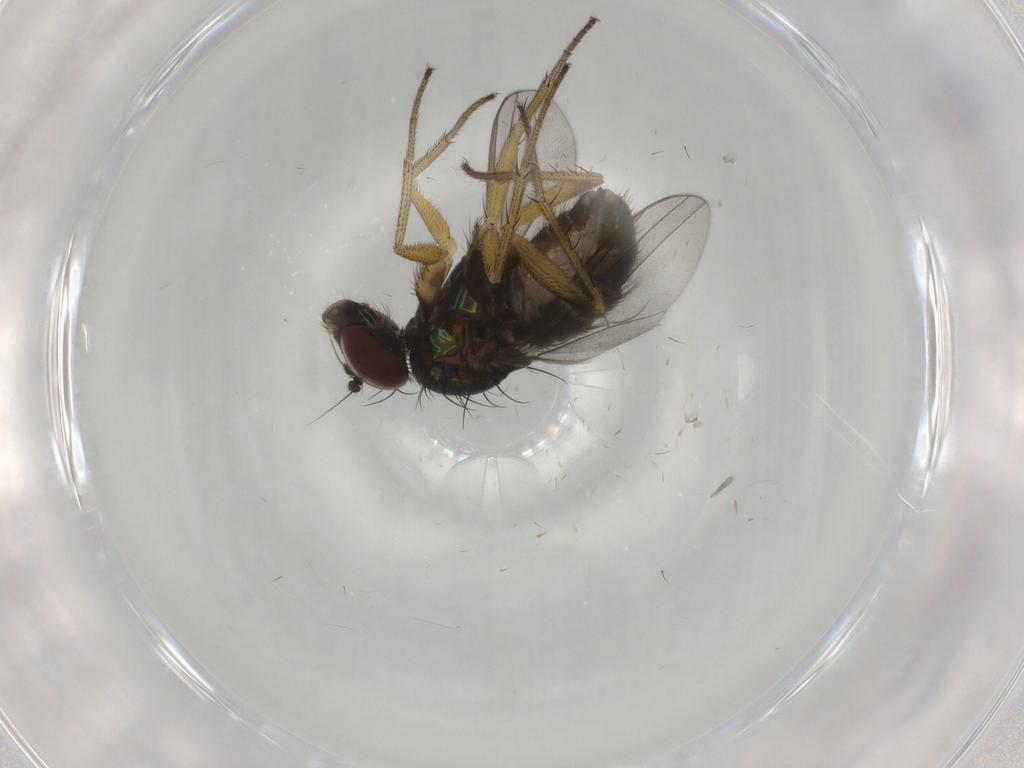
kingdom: Animalia
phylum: Arthropoda
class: Insecta
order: Diptera
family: Dolichopodidae
